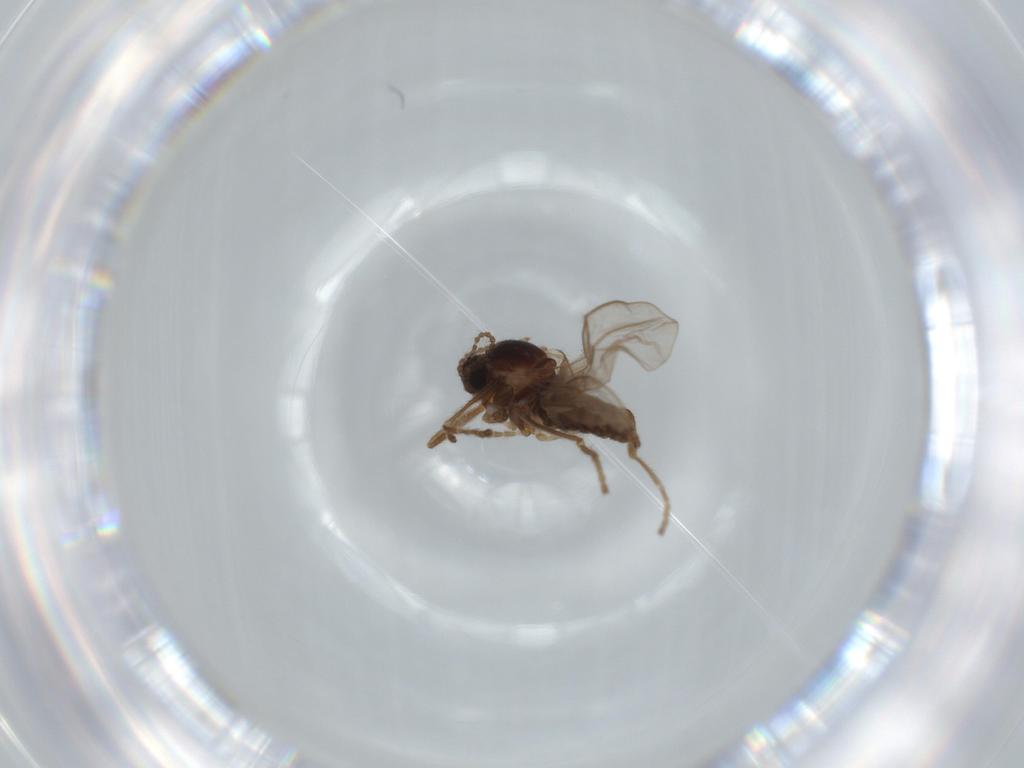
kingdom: Animalia
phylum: Arthropoda
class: Insecta
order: Diptera
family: Cecidomyiidae
